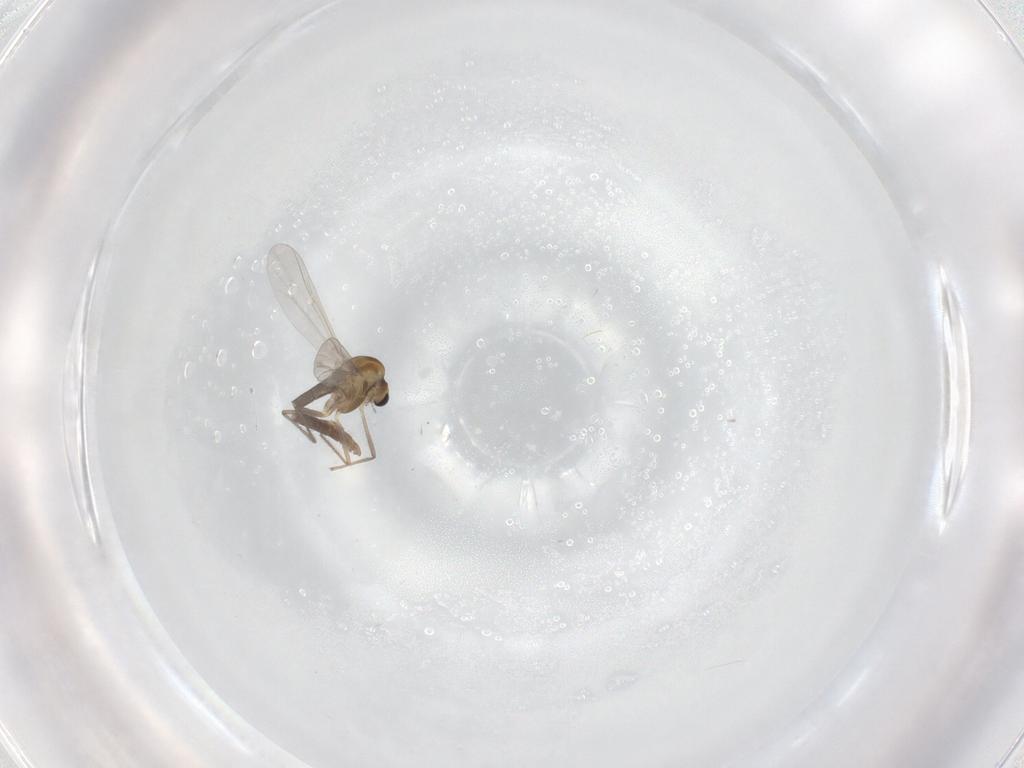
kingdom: Animalia
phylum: Arthropoda
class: Insecta
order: Diptera
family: Chironomidae
